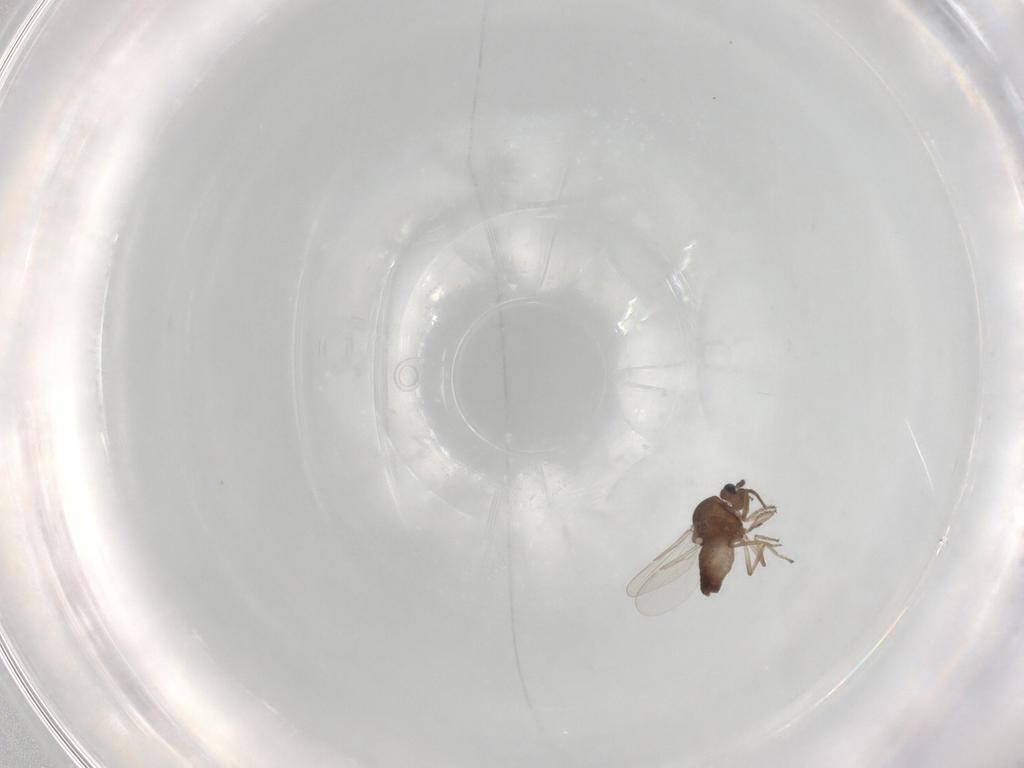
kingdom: Animalia
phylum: Arthropoda
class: Insecta
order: Diptera
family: Ceratopogonidae
